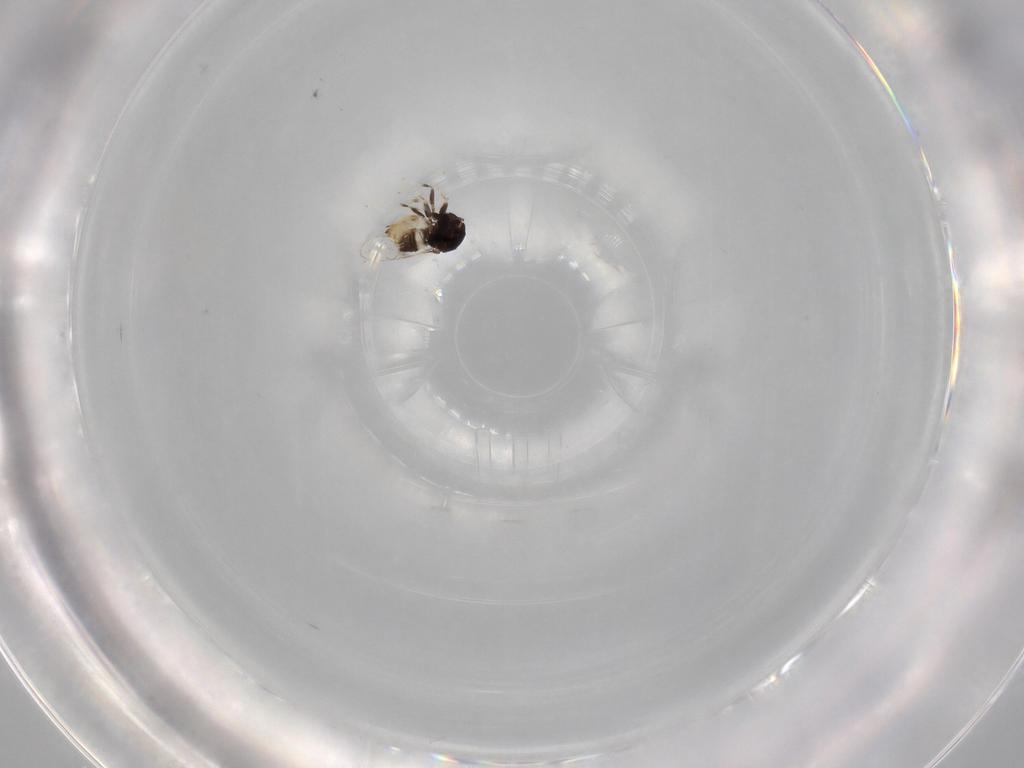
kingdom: Animalia
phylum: Arthropoda
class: Insecta
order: Hymenoptera
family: Eulophidae
